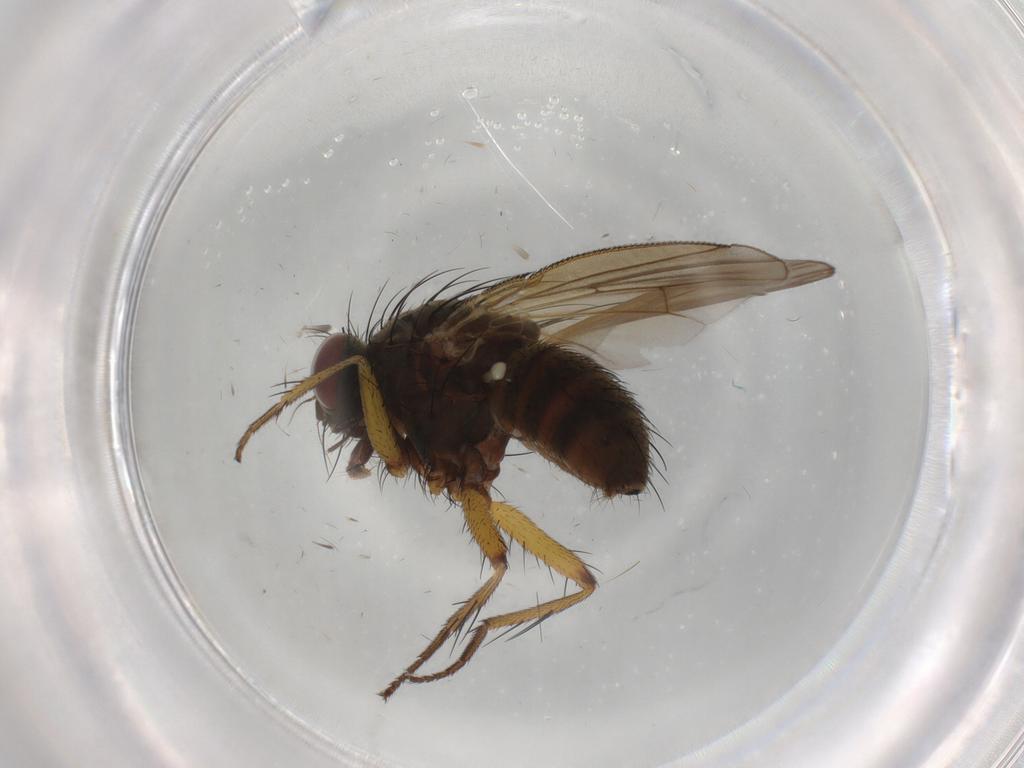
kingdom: Animalia
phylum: Arthropoda
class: Insecta
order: Diptera
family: Muscidae
